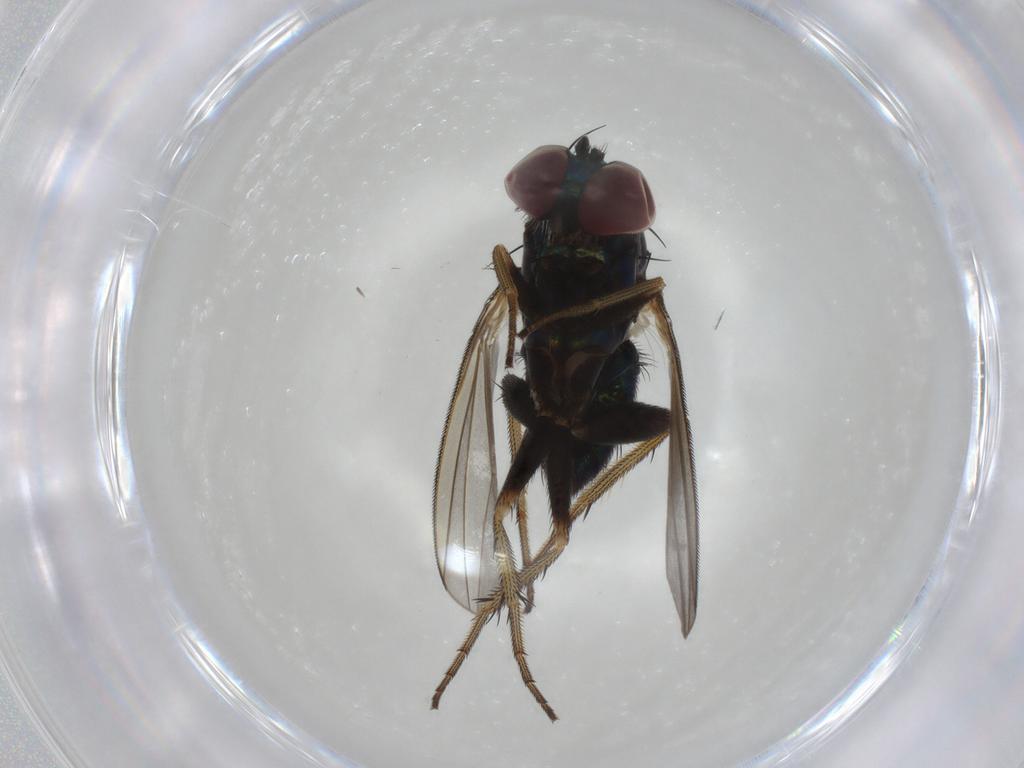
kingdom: Animalia
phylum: Arthropoda
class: Insecta
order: Diptera
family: Dolichopodidae
